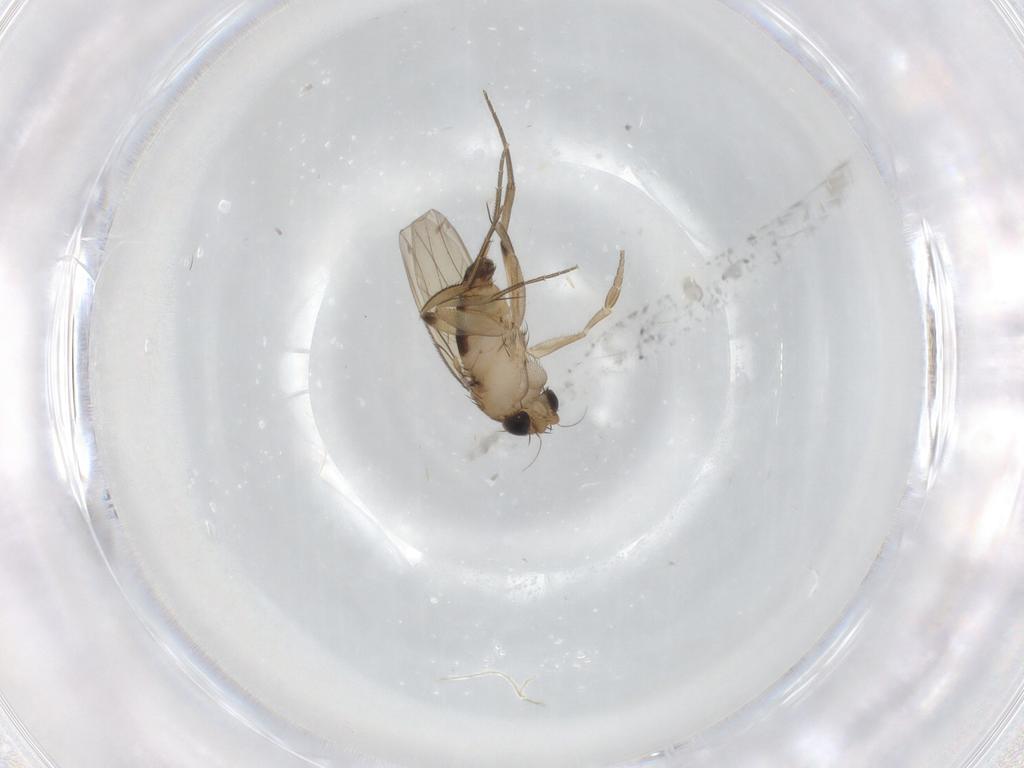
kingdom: Animalia
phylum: Arthropoda
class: Insecta
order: Diptera
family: Phoridae
